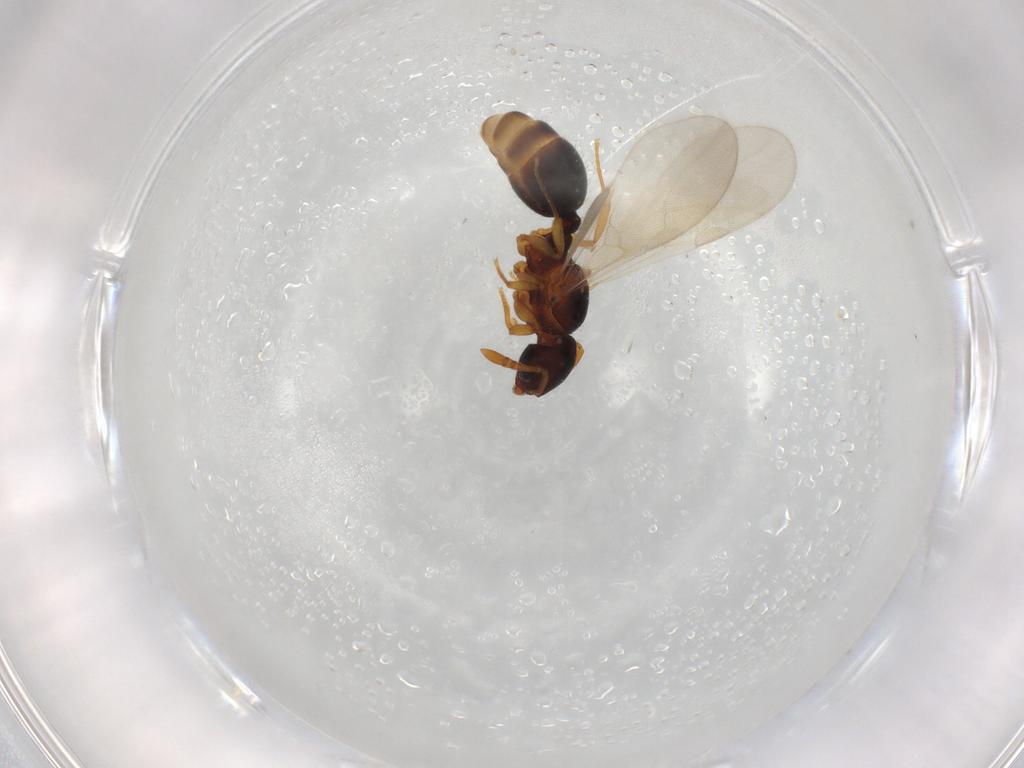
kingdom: Animalia
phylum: Arthropoda
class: Insecta
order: Hymenoptera
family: Formicidae
